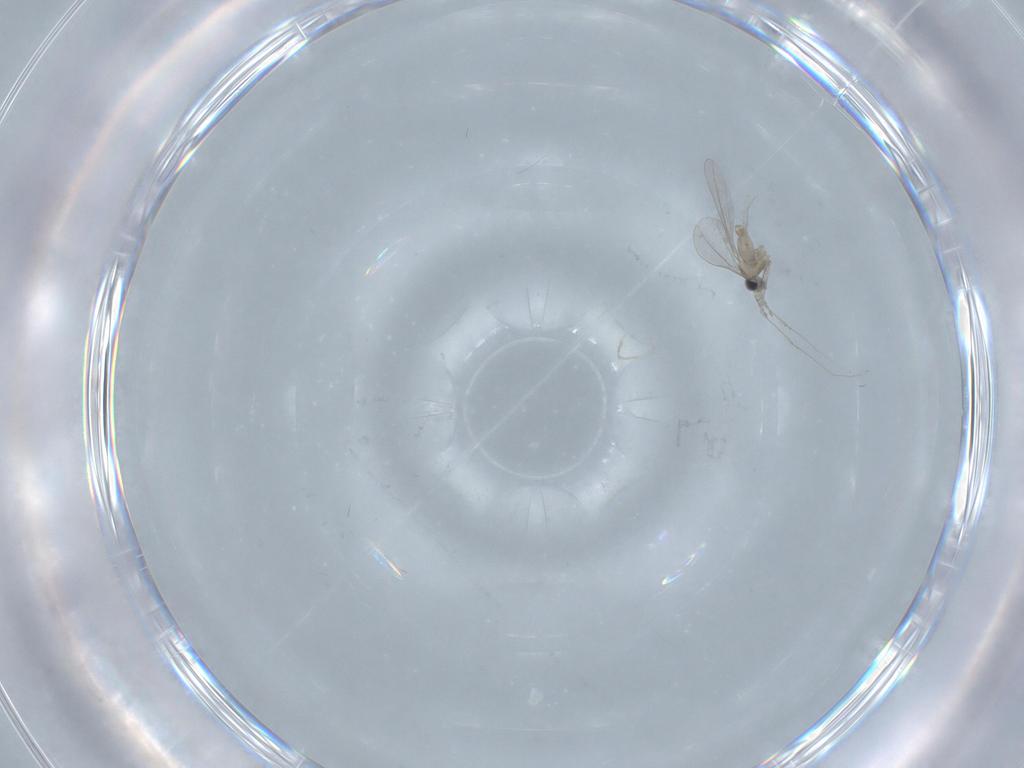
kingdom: Animalia
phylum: Arthropoda
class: Insecta
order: Diptera
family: Cecidomyiidae
